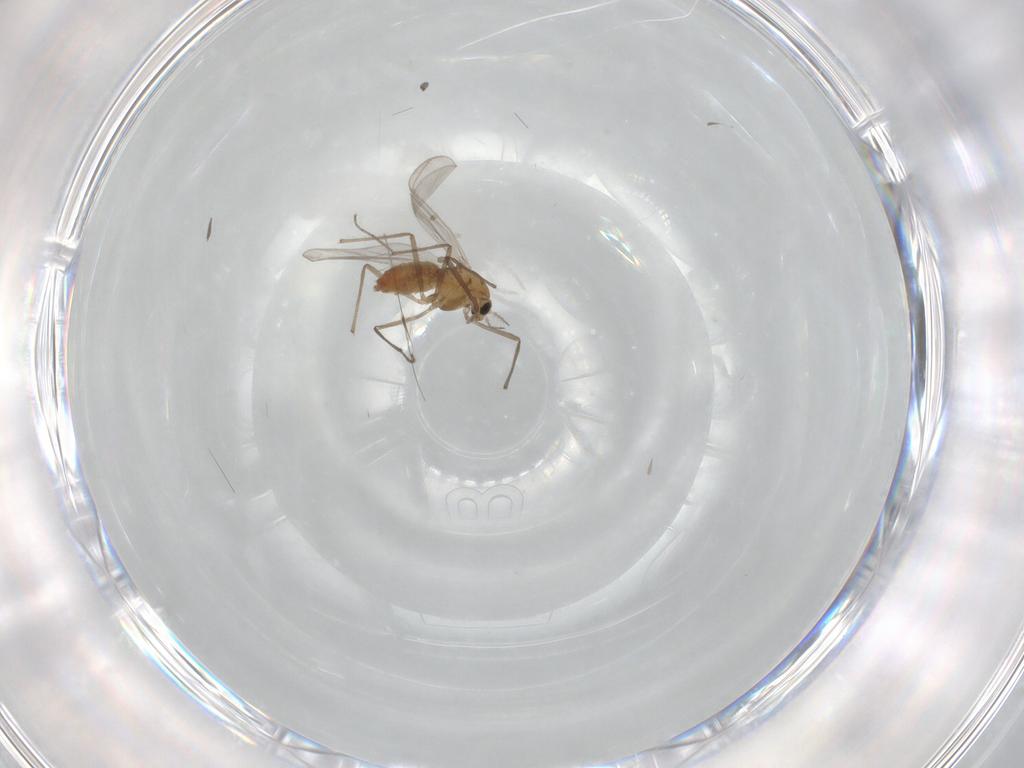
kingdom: Animalia
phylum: Arthropoda
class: Insecta
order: Diptera
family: Chironomidae
